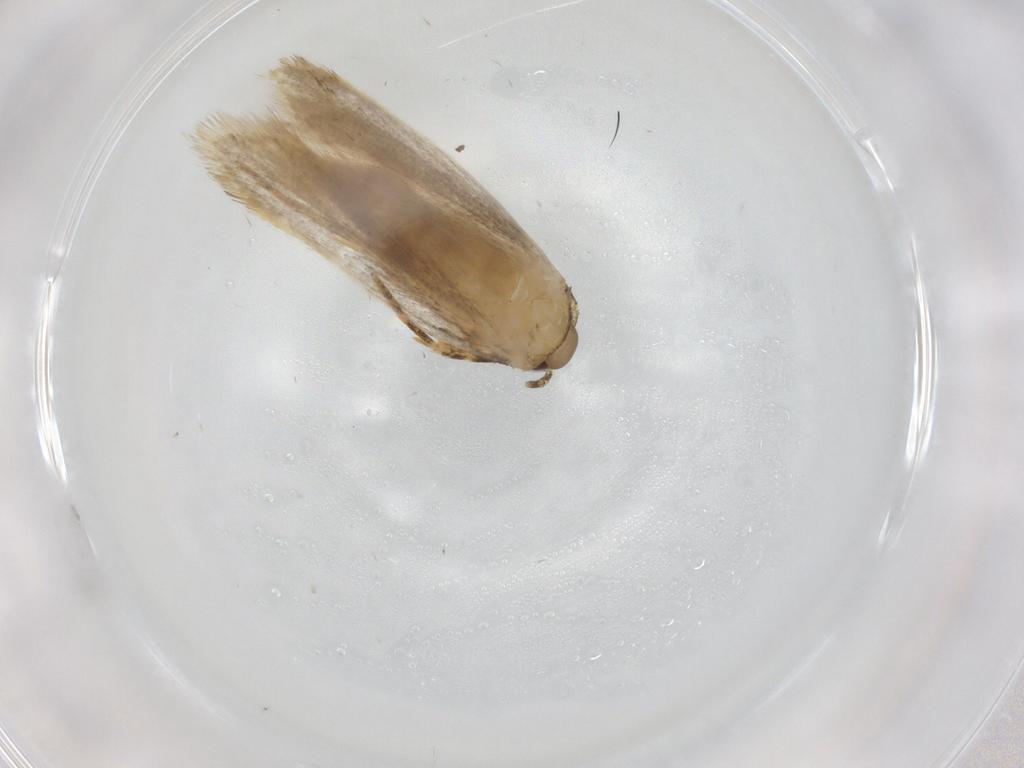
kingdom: Animalia
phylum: Arthropoda
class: Insecta
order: Lepidoptera
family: Autostichidae
